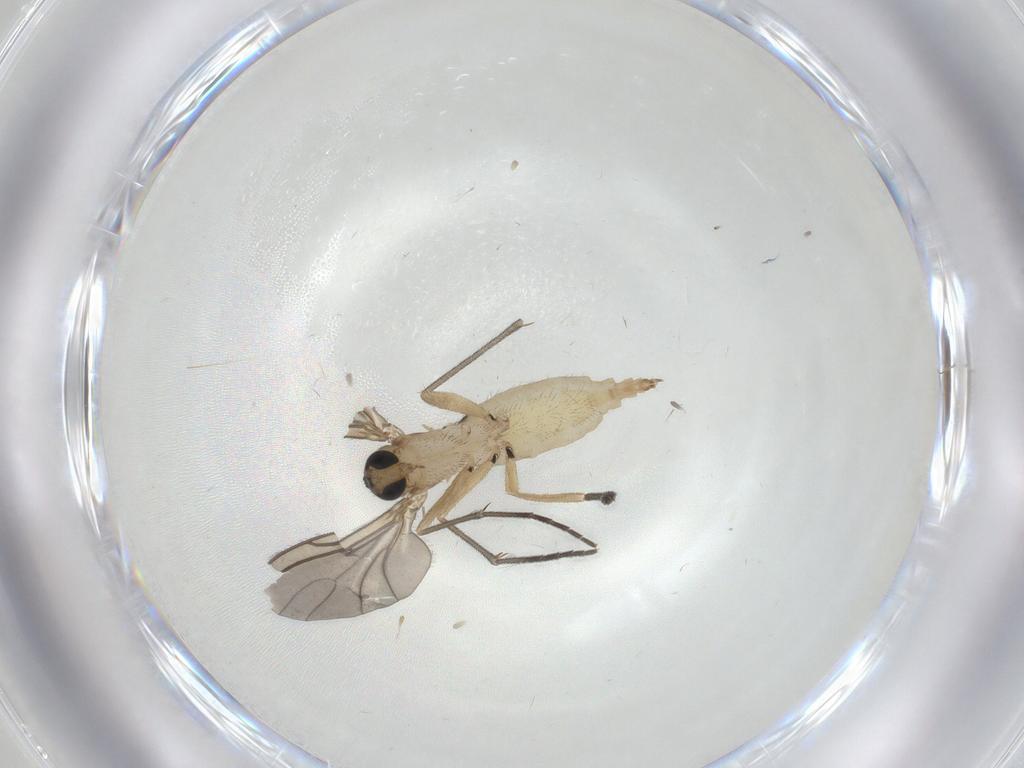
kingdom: Animalia
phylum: Arthropoda
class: Insecta
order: Diptera
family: Sciaridae
